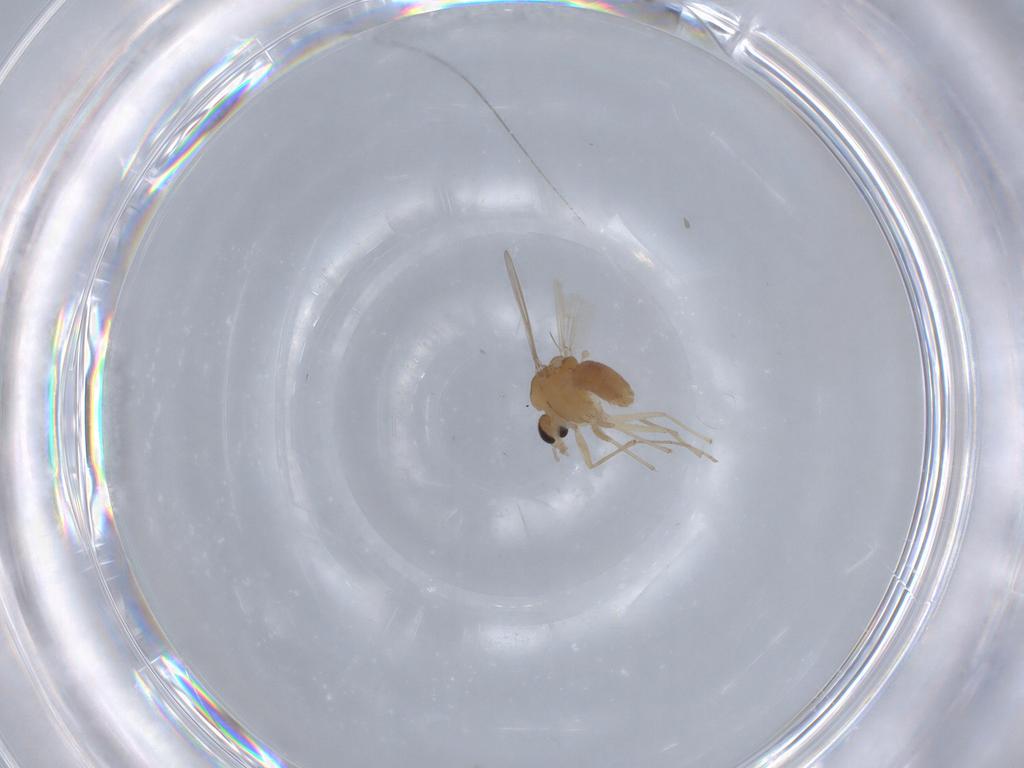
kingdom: Animalia
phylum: Arthropoda
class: Insecta
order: Diptera
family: Chironomidae
